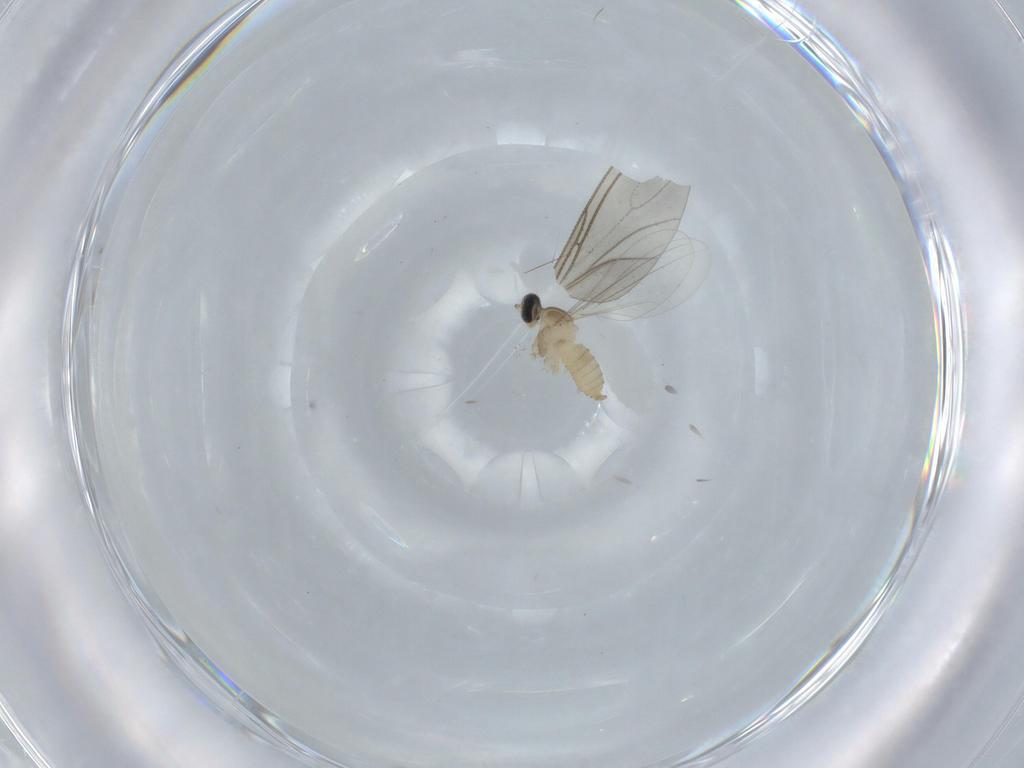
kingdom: Animalia
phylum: Arthropoda
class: Insecta
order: Diptera
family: Cecidomyiidae
